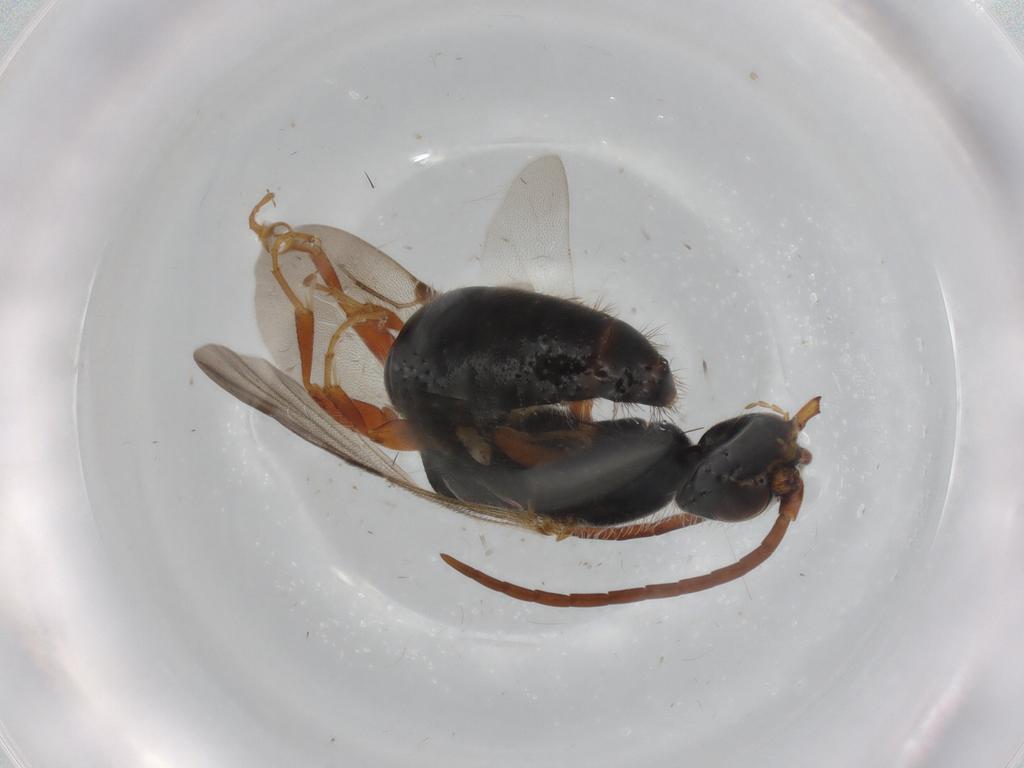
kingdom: Animalia
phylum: Arthropoda
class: Insecta
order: Hymenoptera
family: Bethylidae
